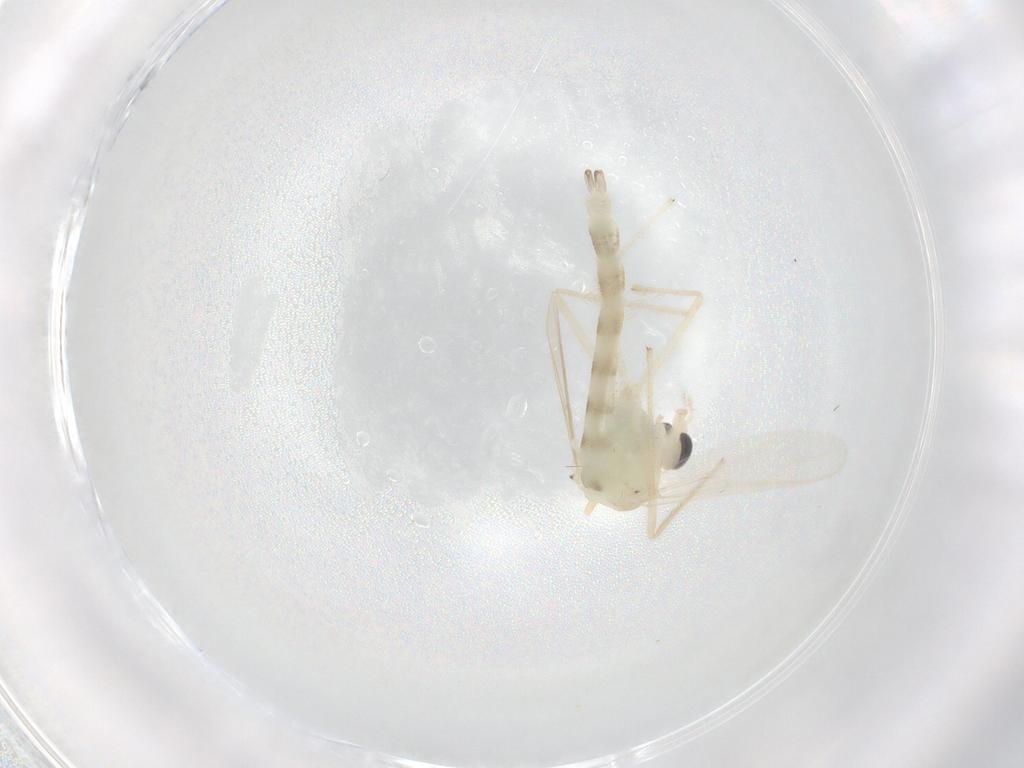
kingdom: Animalia
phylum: Arthropoda
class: Insecta
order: Diptera
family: Chironomidae
